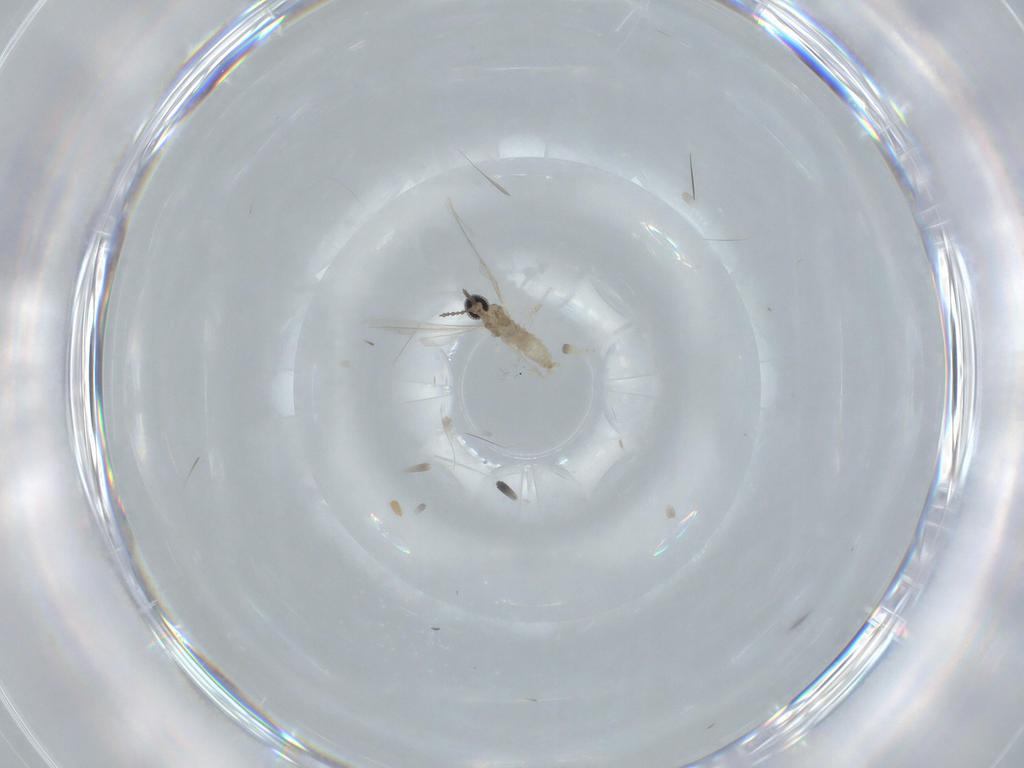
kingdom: Animalia
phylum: Arthropoda
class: Insecta
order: Diptera
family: Cecidomyiidae
